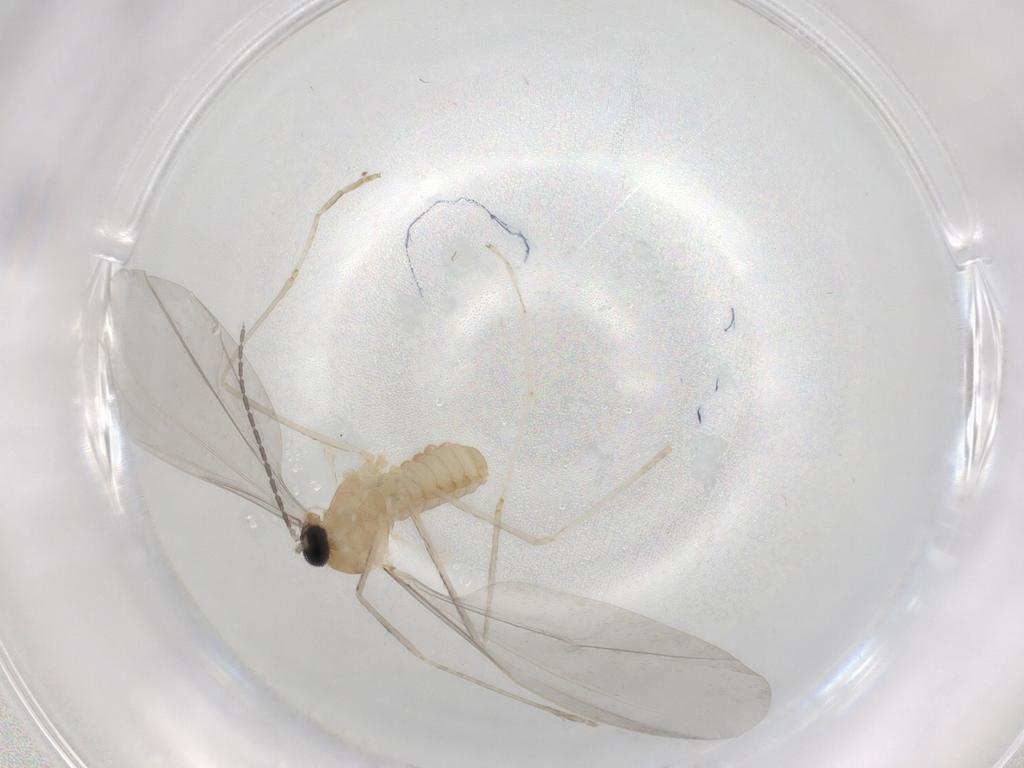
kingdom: Animalia
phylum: Arthropoda
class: Insecta
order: Diptera
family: Cecidomyiidae
